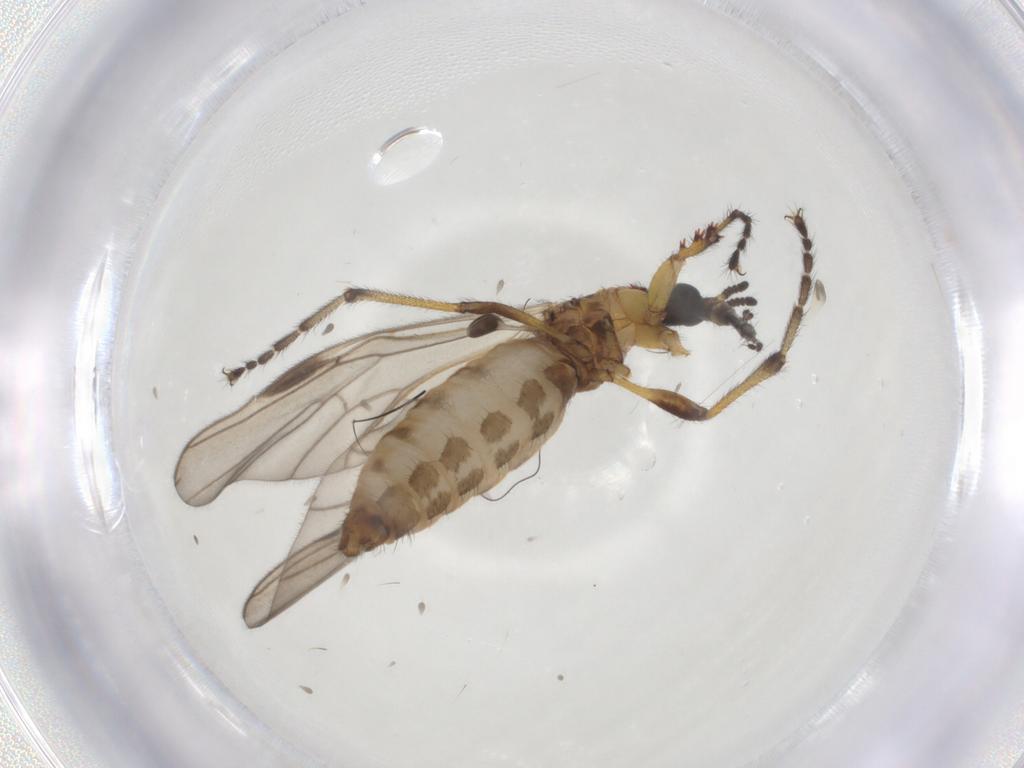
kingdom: Animalia
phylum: Arthropoda
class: Insecta
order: Diptera
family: Bibionidae
